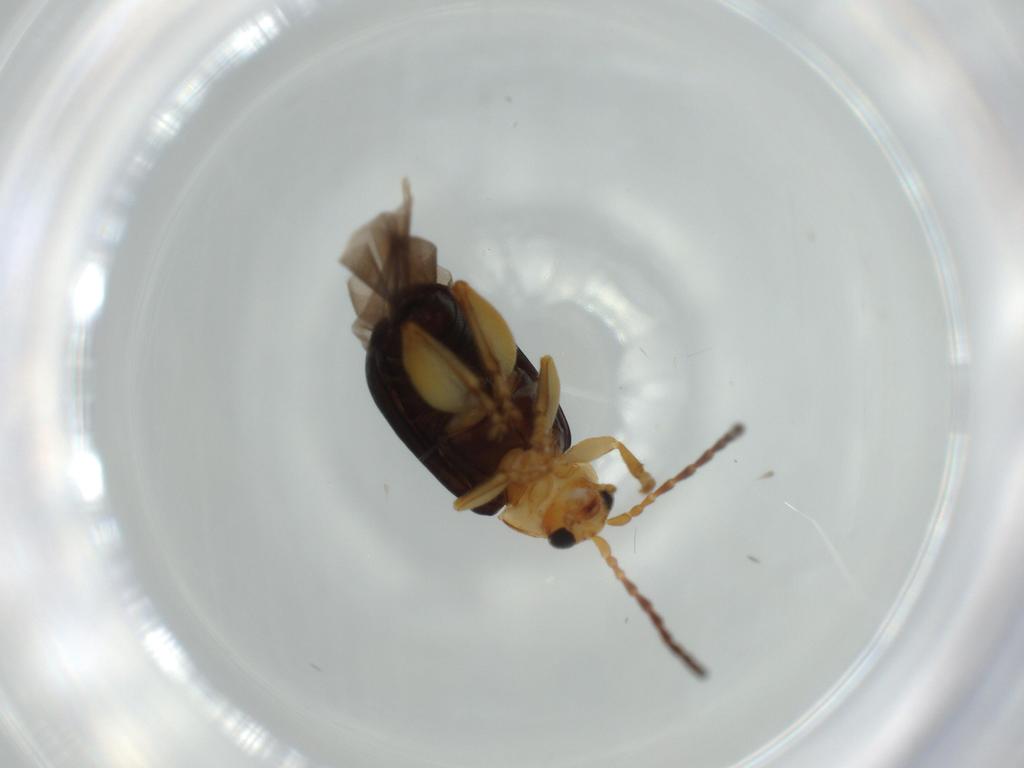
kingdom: Animalia
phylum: Arthropoda
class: Insecta
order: Coleoptera
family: Chrysomelidae
